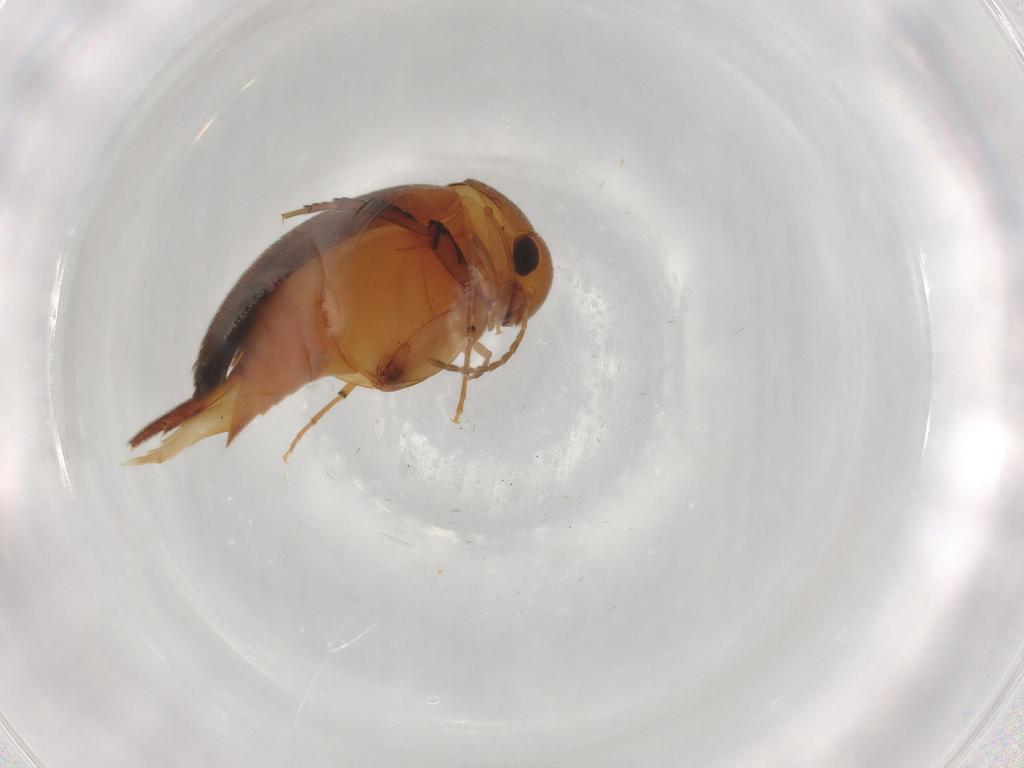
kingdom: Animalia
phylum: Arthropoda
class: Insecta
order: Coleoptera
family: Mordellidae
